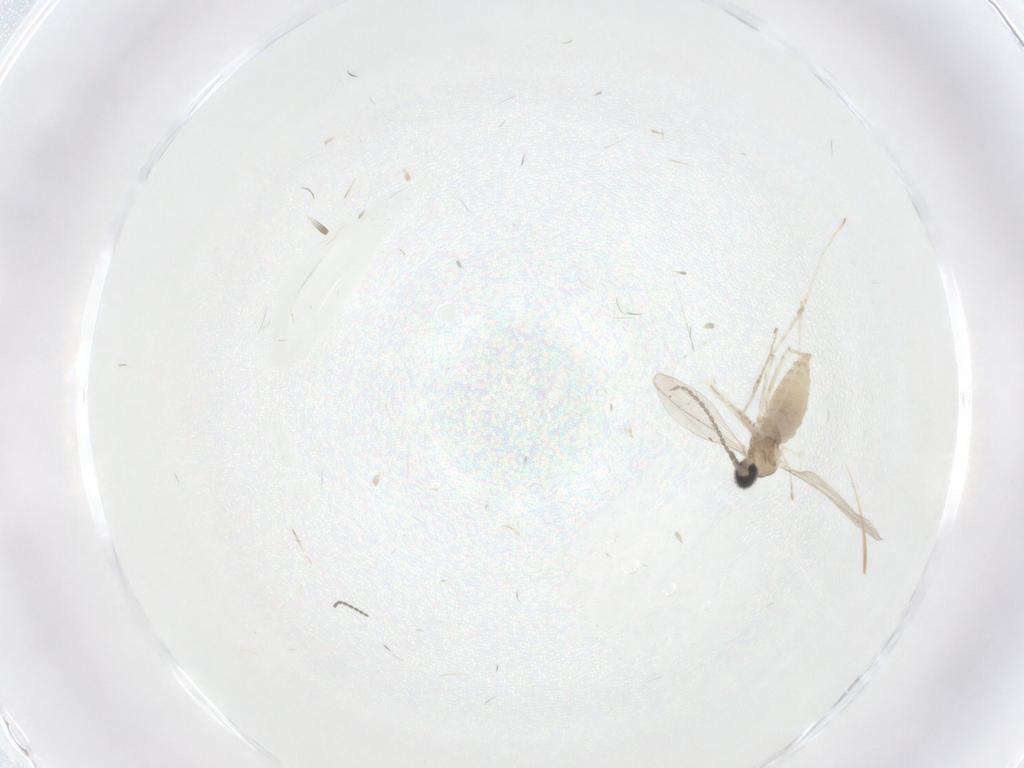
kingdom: Animalia
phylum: Arthropoda
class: Insecta
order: Diptera
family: Cecidomyiidae
